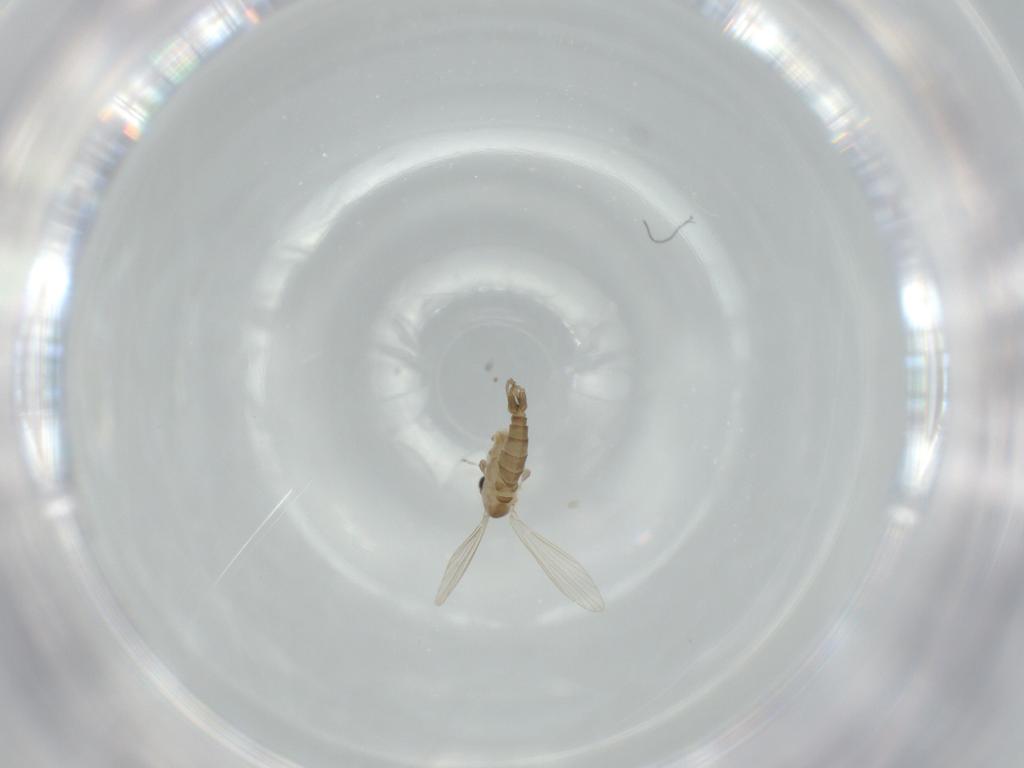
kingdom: Animalia
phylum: Arthropoda
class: Insecta
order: Diptera
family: Psychodidae
